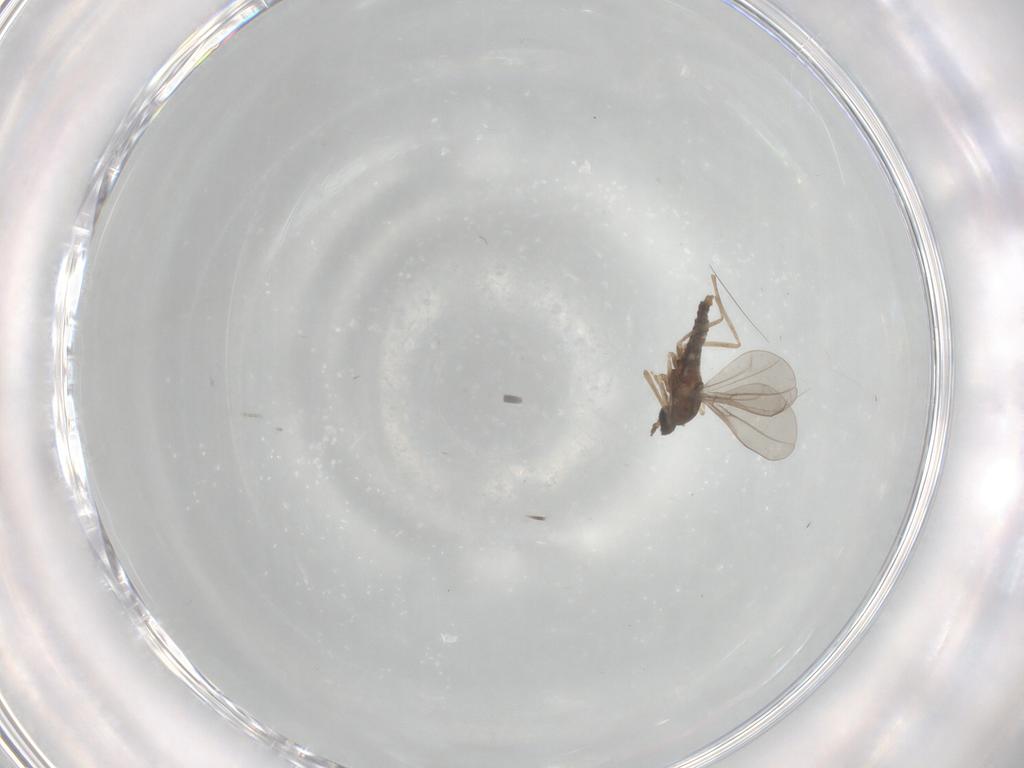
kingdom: Animalia
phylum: Arthropoda
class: Insecta
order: Diptera
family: Cecidomyiidae
